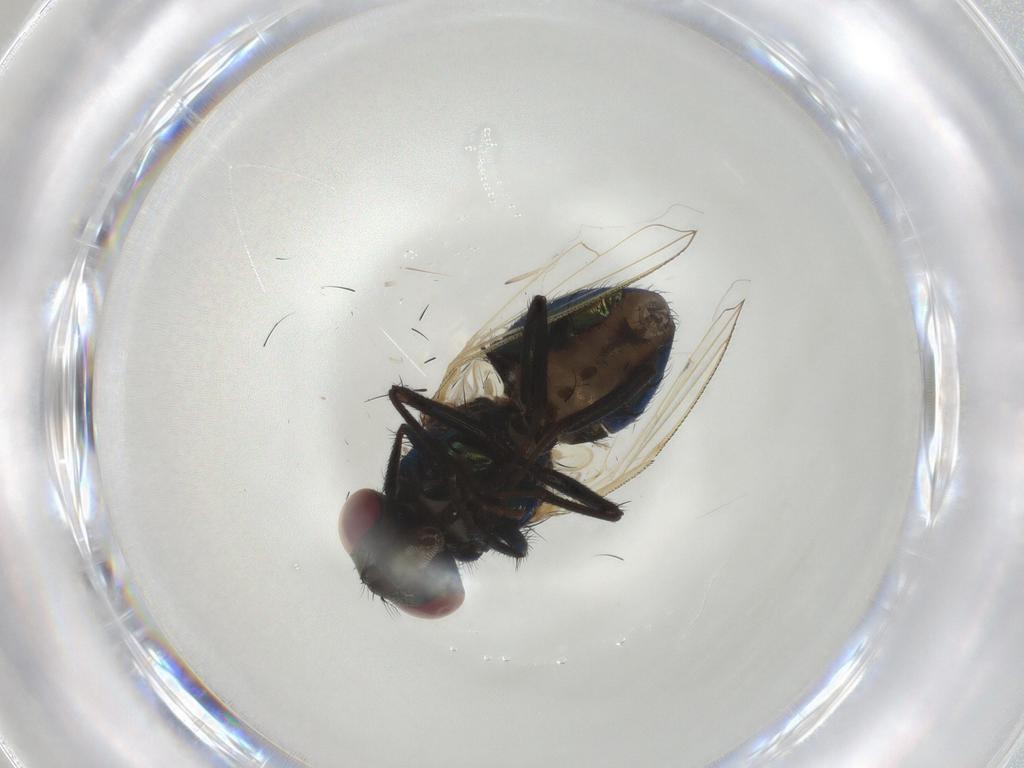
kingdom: Animalia
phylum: Arthropoda
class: Insecta
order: Diptera
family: Muscidae
